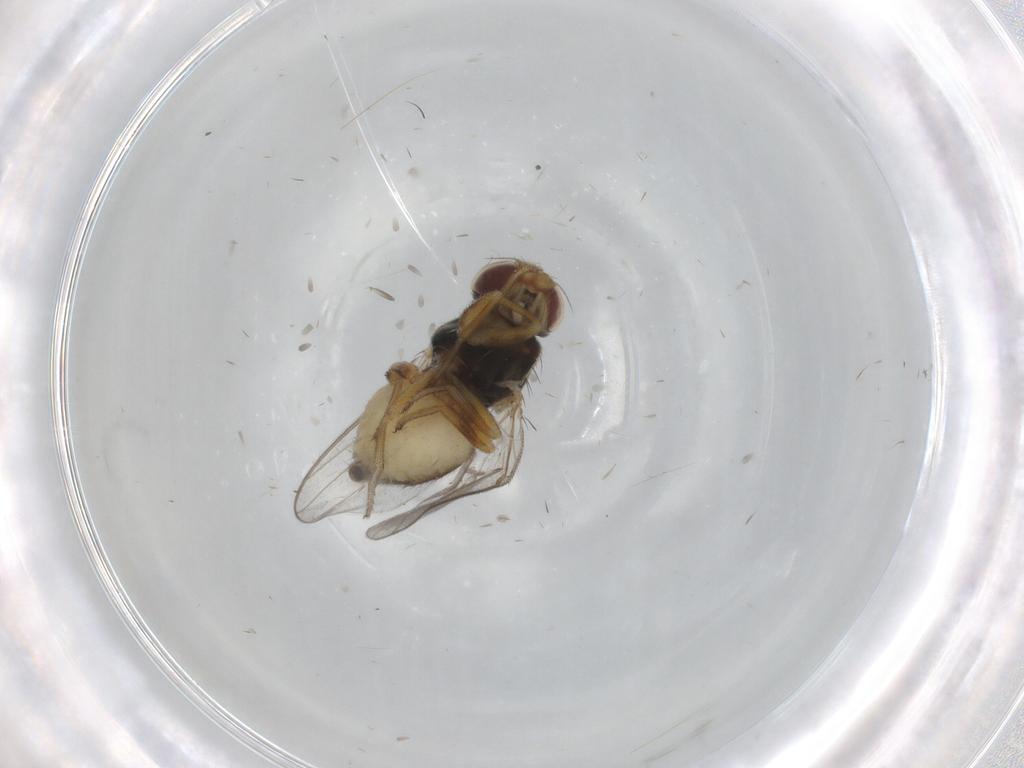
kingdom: Animalia
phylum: Arthropoda
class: Insecta
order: Diptera
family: Chloropidae
